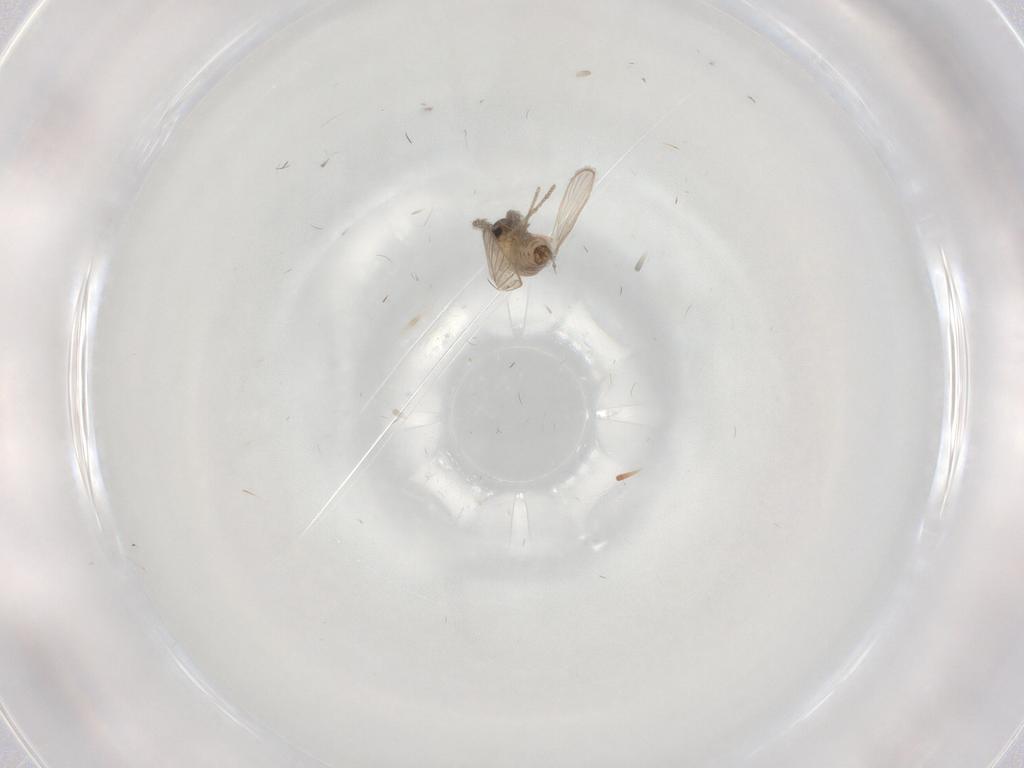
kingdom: Animalia
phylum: Arthropoda
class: Insecta
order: Diptera
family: Psychodidae
